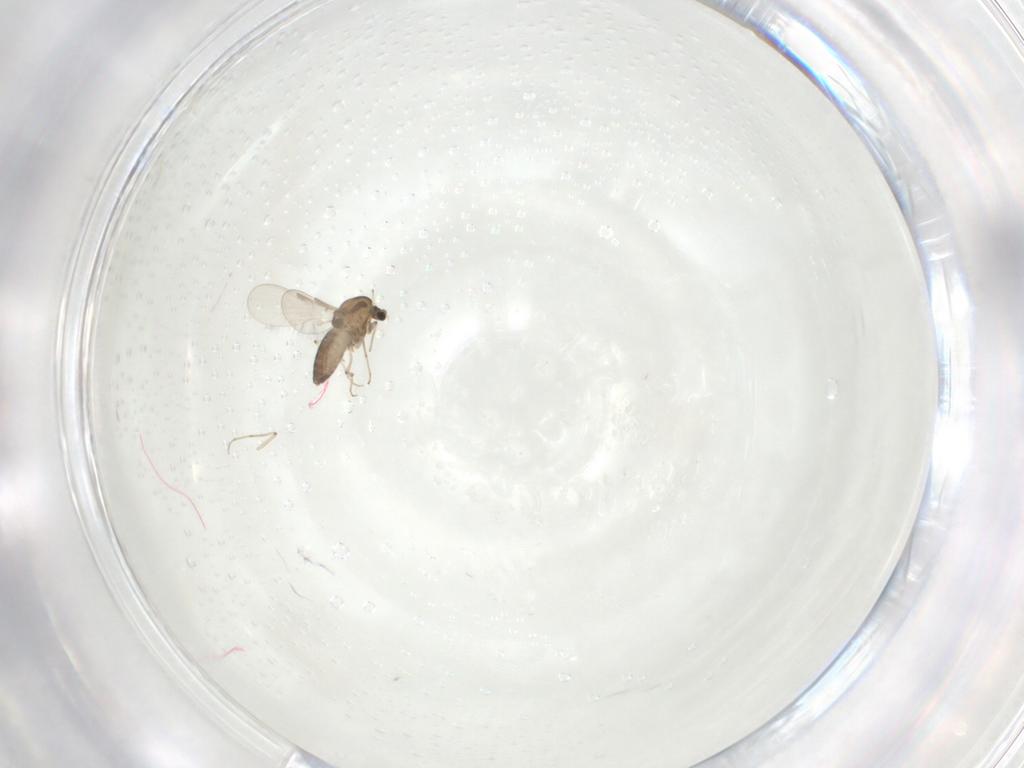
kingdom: Animalia
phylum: Arthropoda
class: Insecta
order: Diptera
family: Chironomidae
